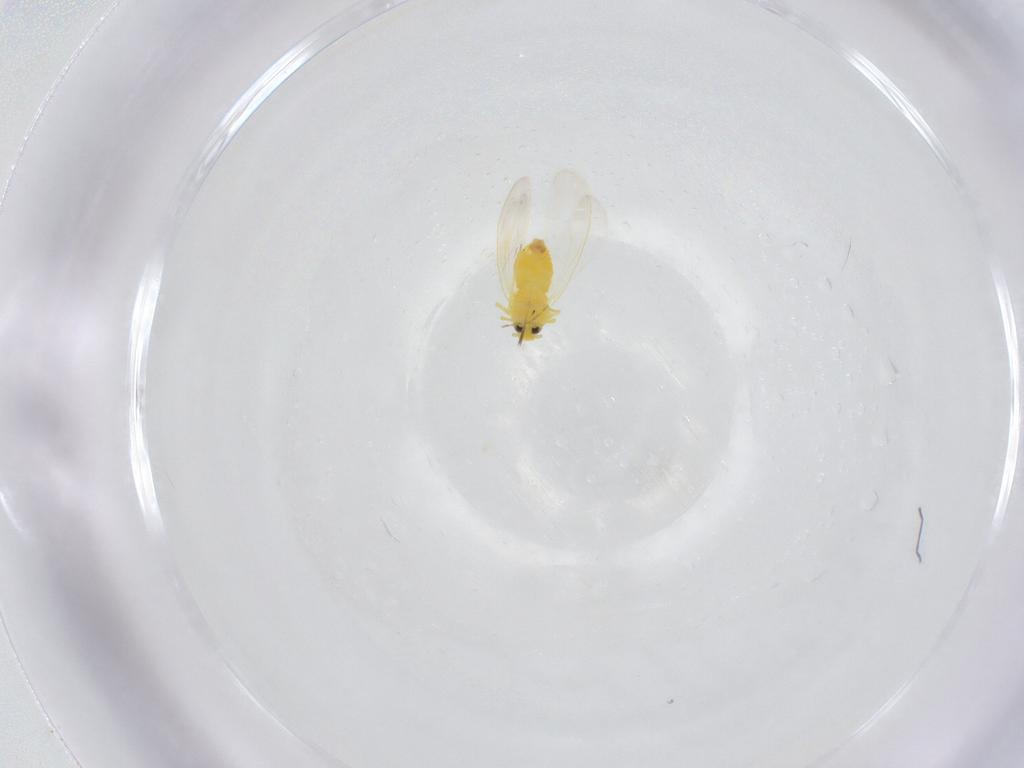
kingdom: Animalia
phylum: Arthropoda
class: Insecta
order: Hemiptera
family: Aleyrodidae
